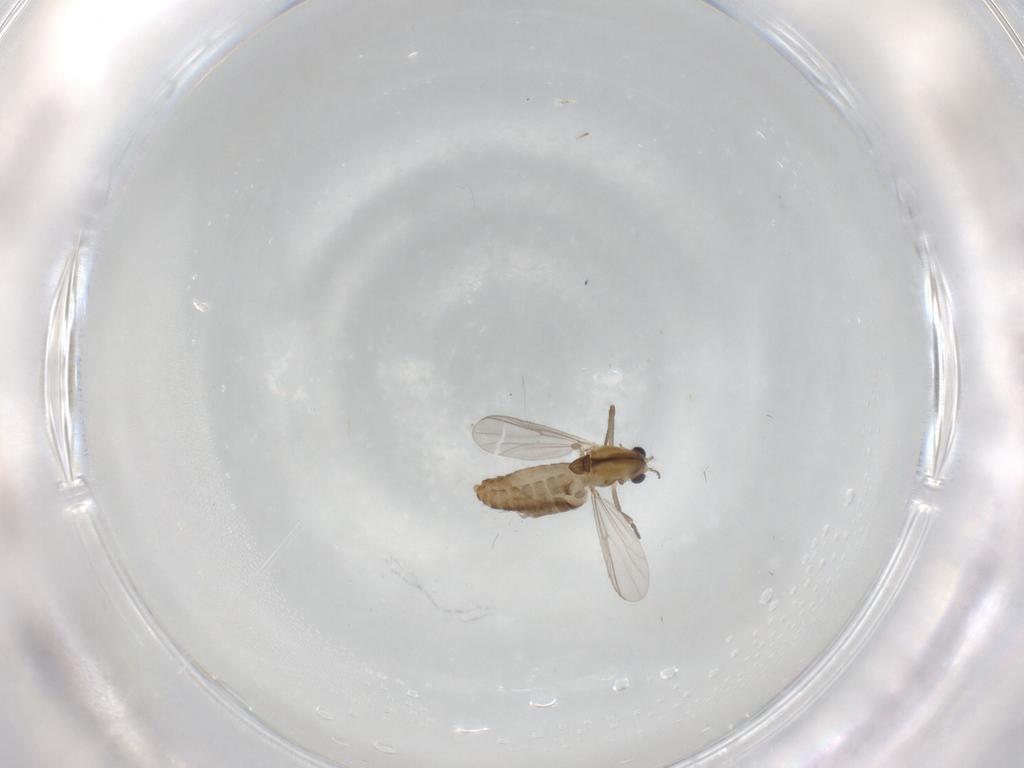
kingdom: Animalia
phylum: Arthropoda
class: Insecta
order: Diptera
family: Chironomidae
